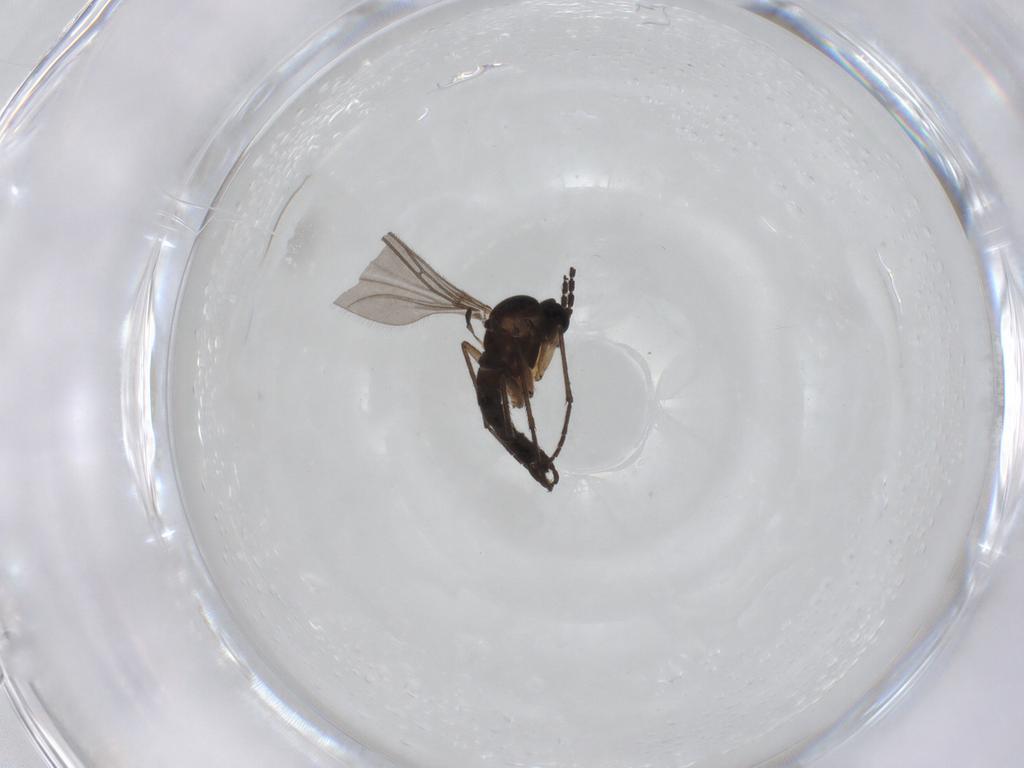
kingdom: Animalia
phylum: Arthropoda
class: Insecta
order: Diptera
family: Sciaridae
